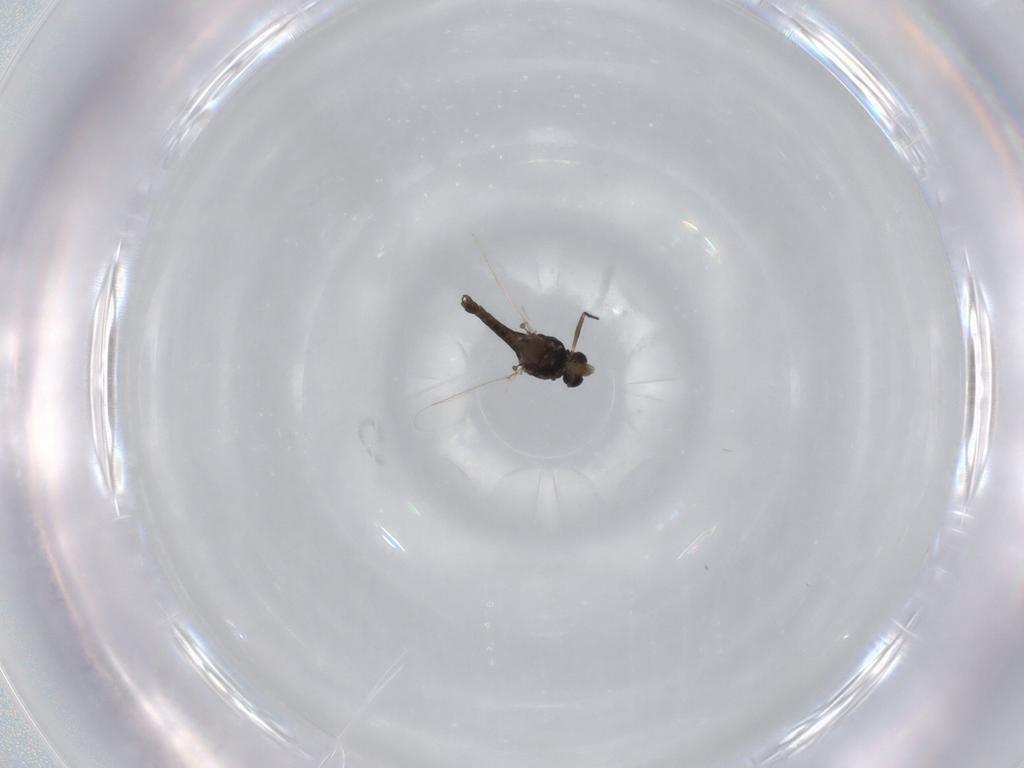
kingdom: Animalia
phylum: Arthropoda
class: Insecta
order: Diptera
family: Chironomidae
